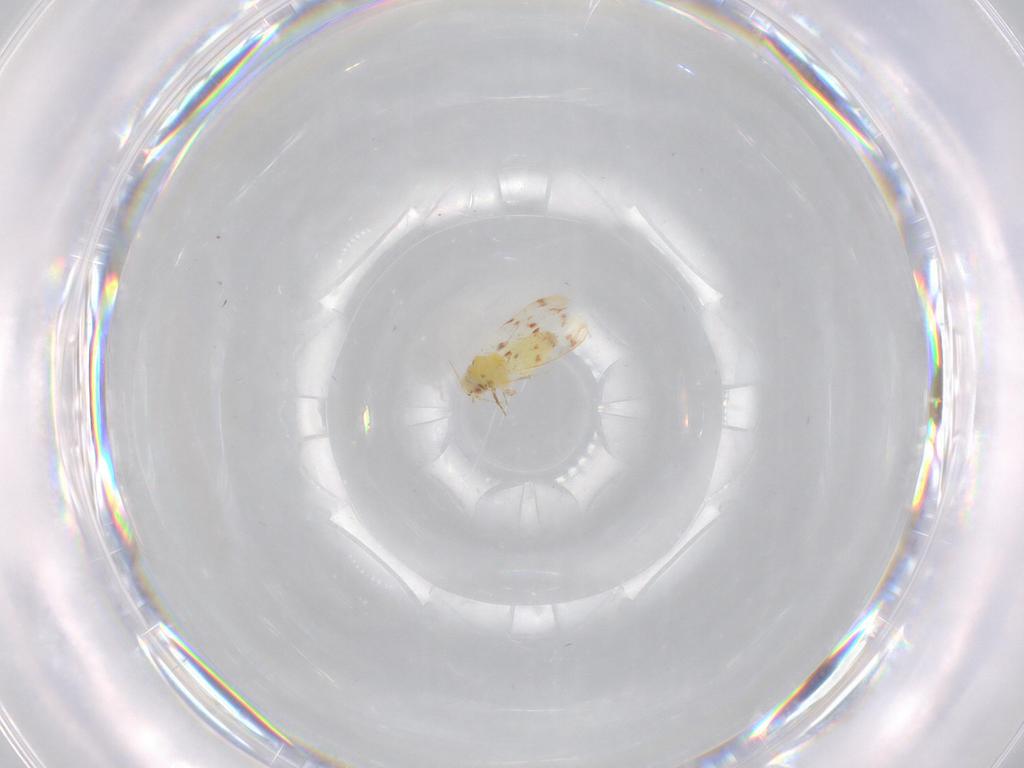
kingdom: Animalia
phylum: Arthropoda
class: Insecta
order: Hemiptera
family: Aleyrodidae
